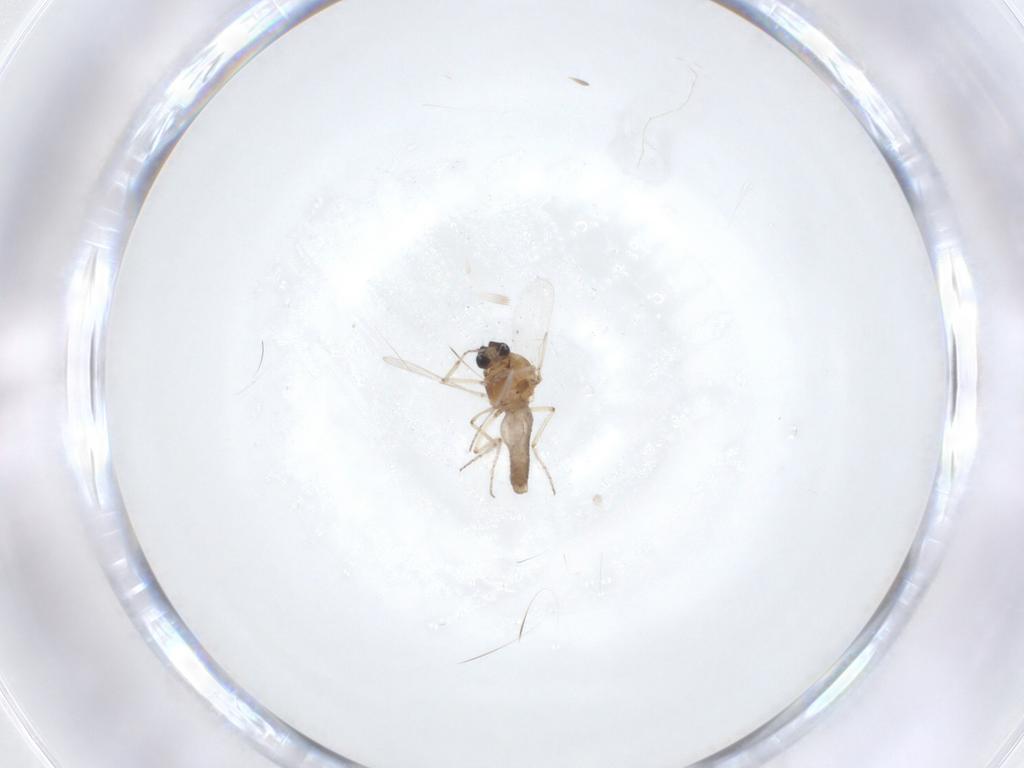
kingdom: Animalia
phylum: Arthropoda
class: Insecta
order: Diptera
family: Ceratopogonidae
